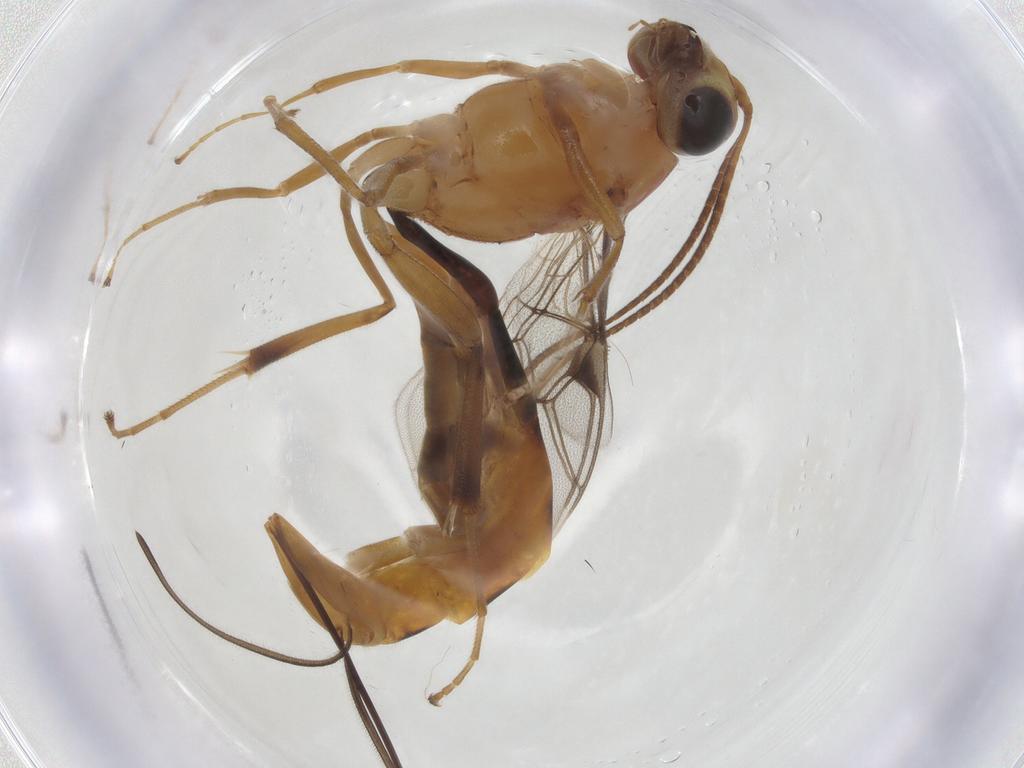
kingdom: Animalia
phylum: Arthropoda
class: Insecta
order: Hymenoptera
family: Ichneumonidae
